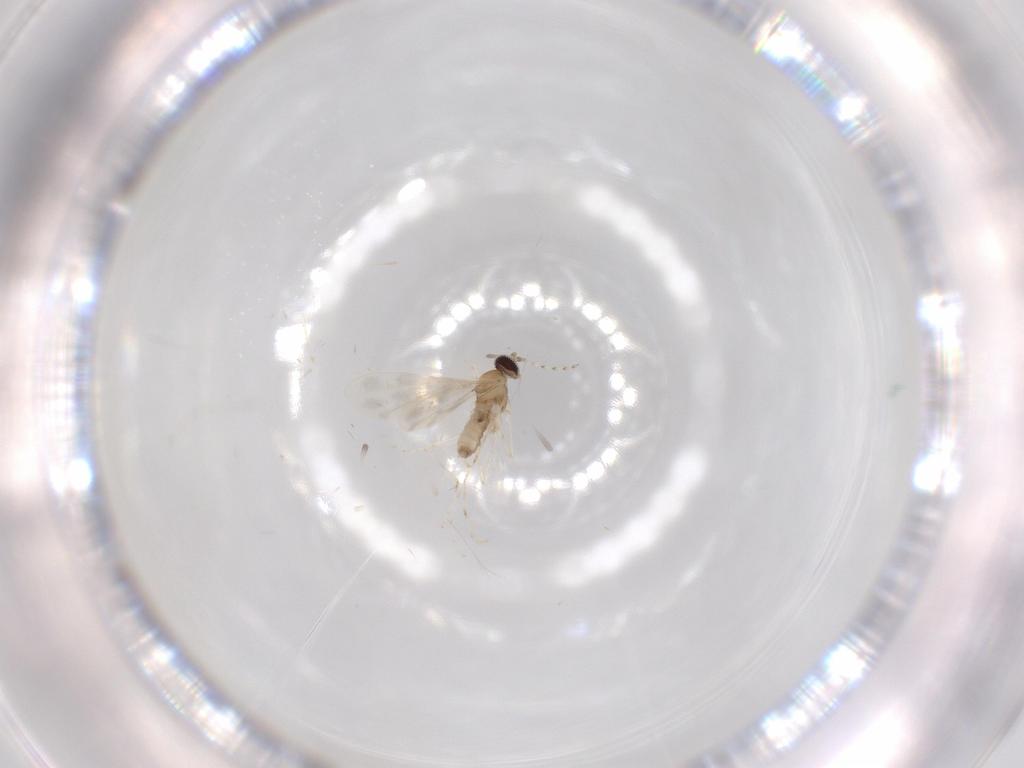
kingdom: Animalia
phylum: Arthropoda
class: Insecta
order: Diptera
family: Cecidomyiidae
